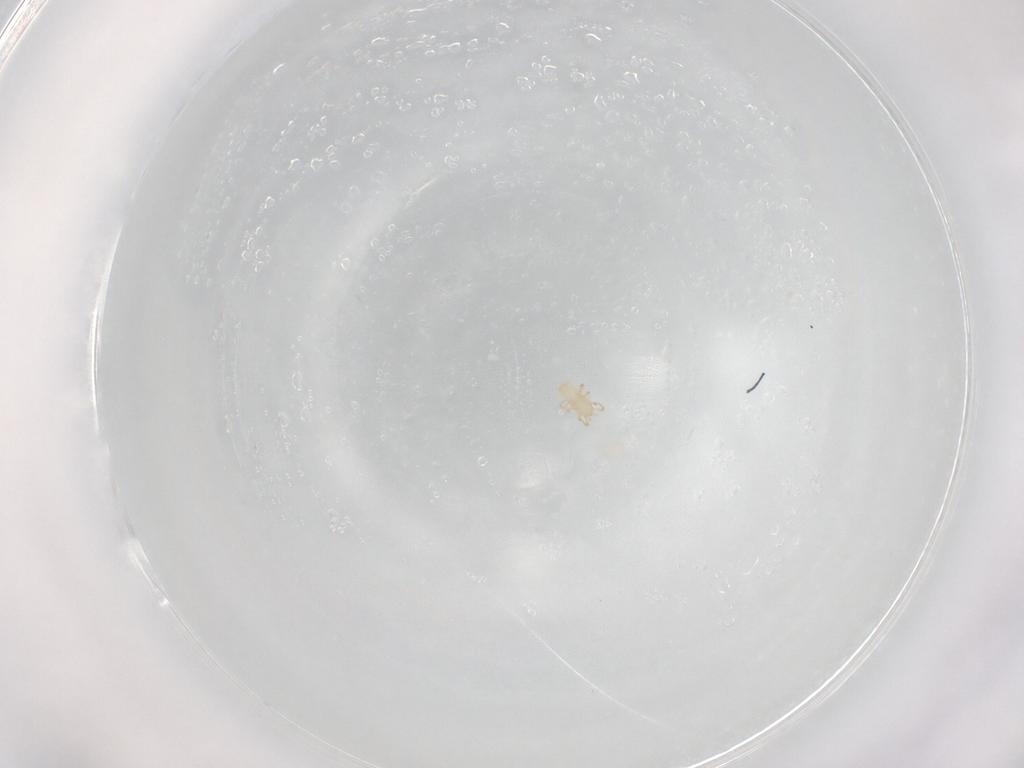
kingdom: Animalia
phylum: Arthropoda
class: Arachnida
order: Mesostigmata
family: Phytoseiidae
